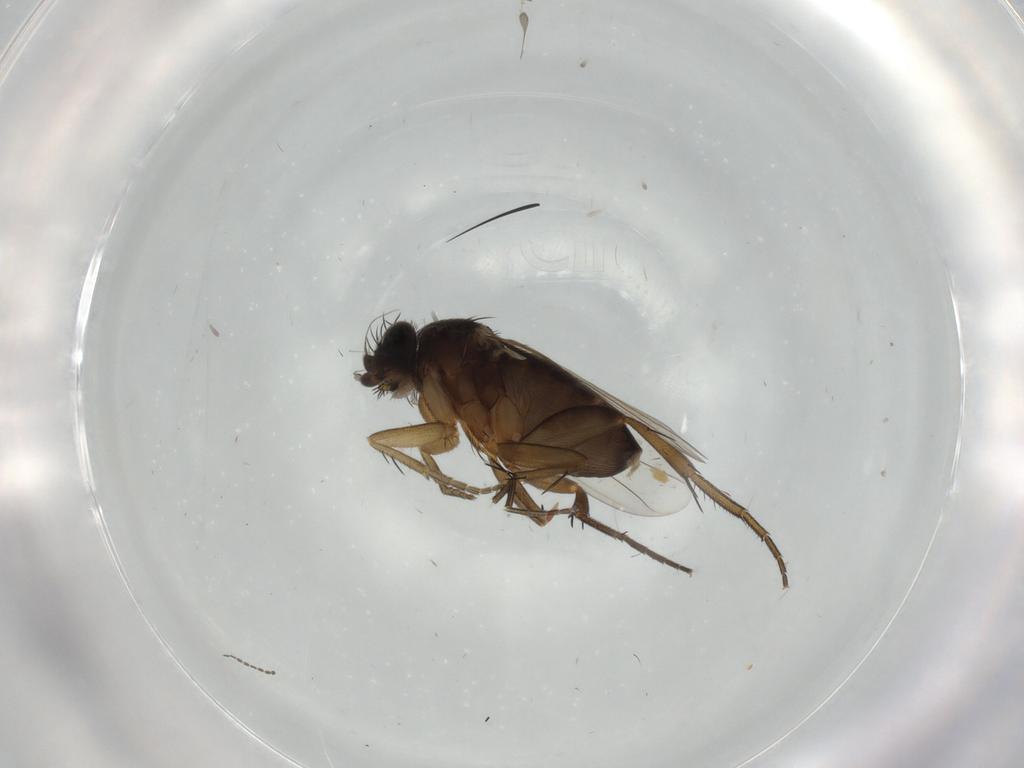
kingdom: Animalia
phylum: Arthropoda
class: Insecta
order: Diptera
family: Phoridae
